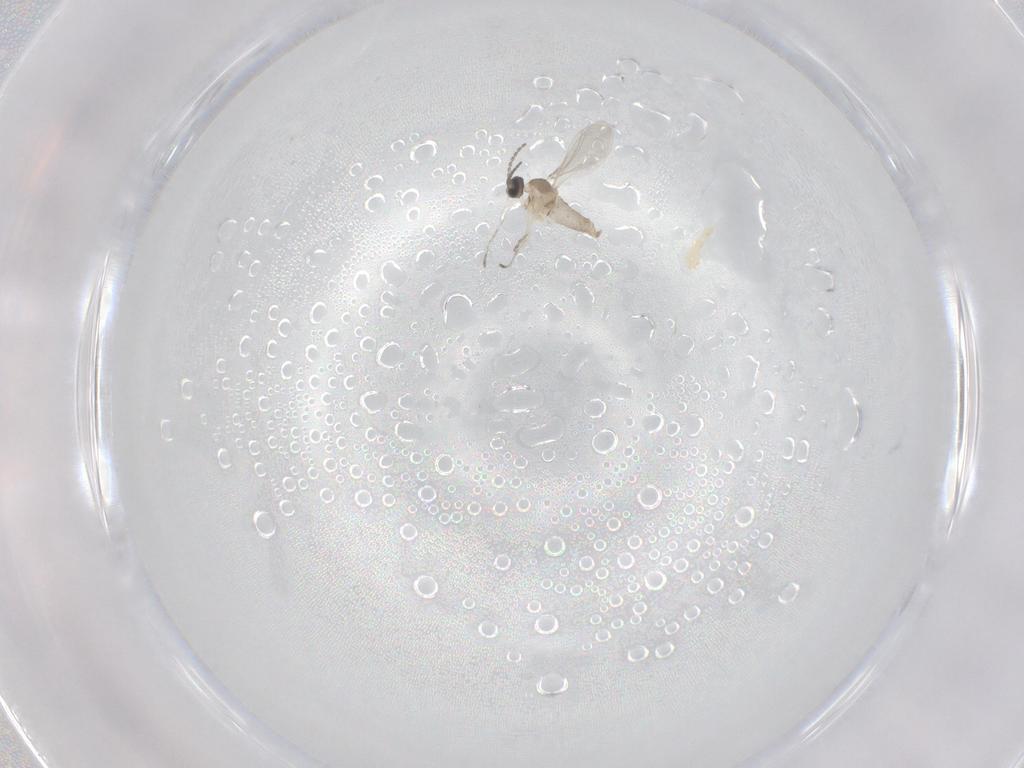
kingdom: Animalia
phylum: Arthropoda
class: Insecta
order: Diptera
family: Cecidomyiidae
